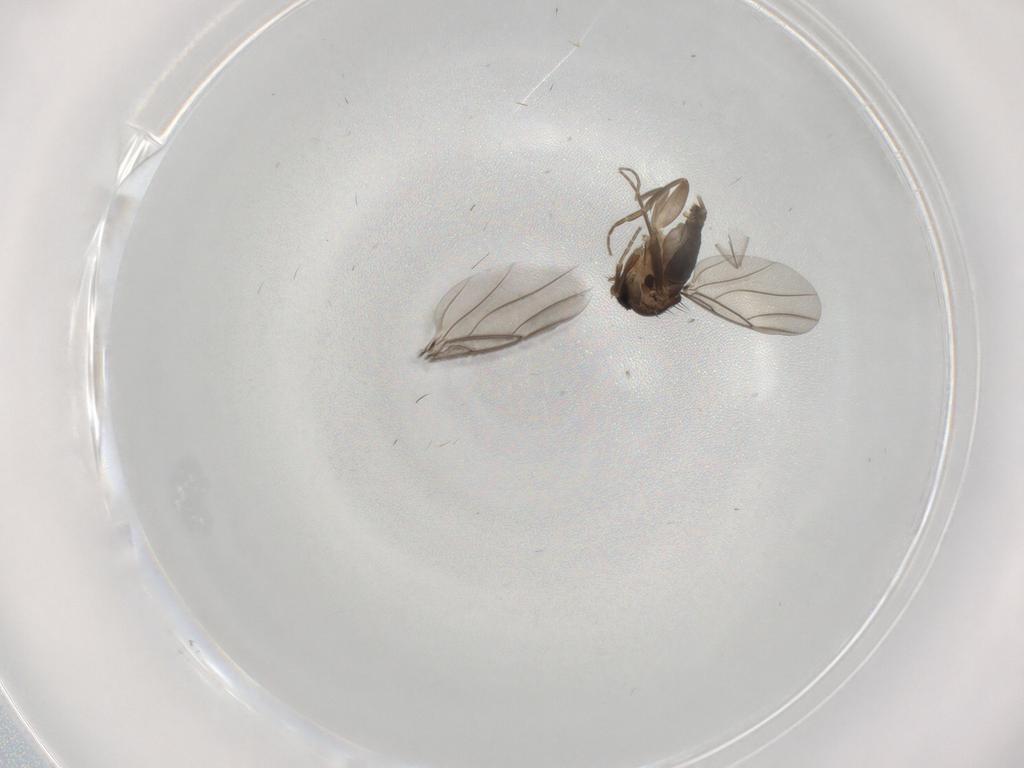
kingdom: Animalia
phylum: Arthropoda
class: Insecta
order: Diptera
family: Phoridae
